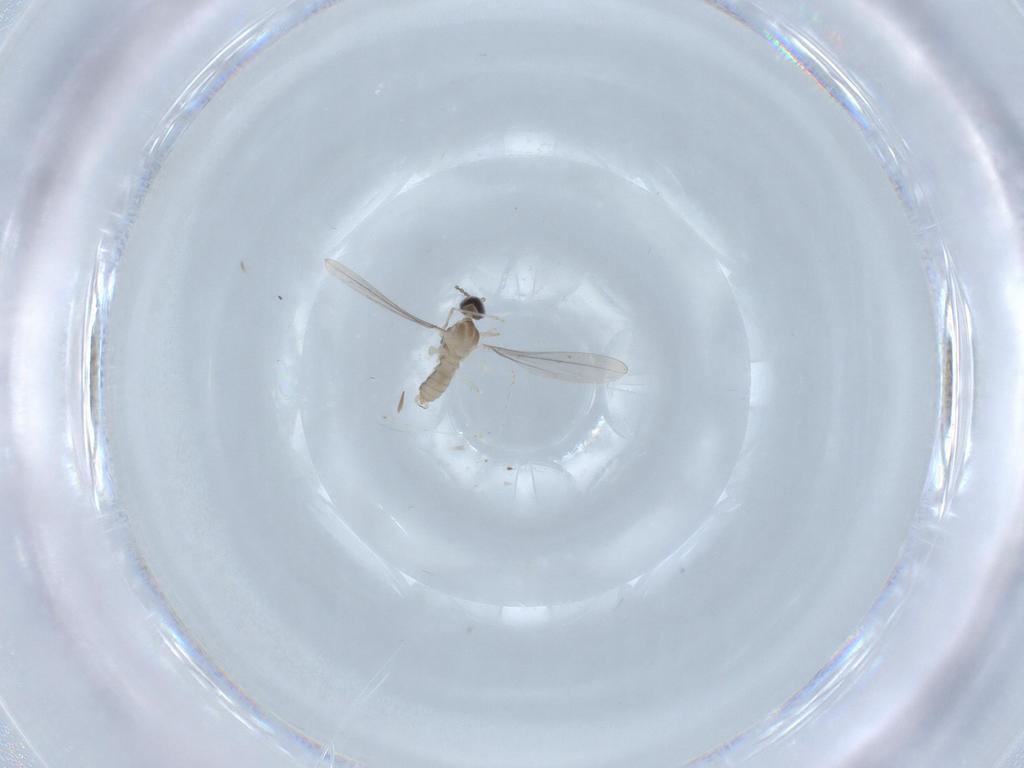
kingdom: Animalia
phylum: Arthropoda
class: Insecta
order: Diptera
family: Cecidomyiidae
